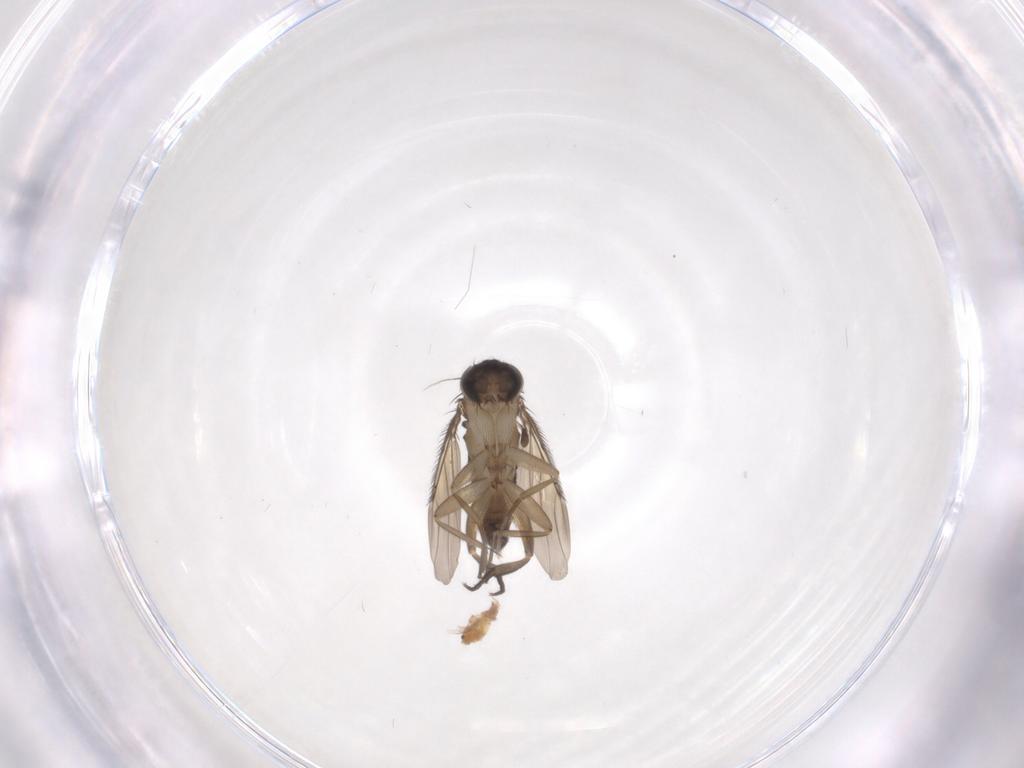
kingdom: Animalia
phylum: Arthropoda
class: Insecta
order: Diptera
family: Phoridae
